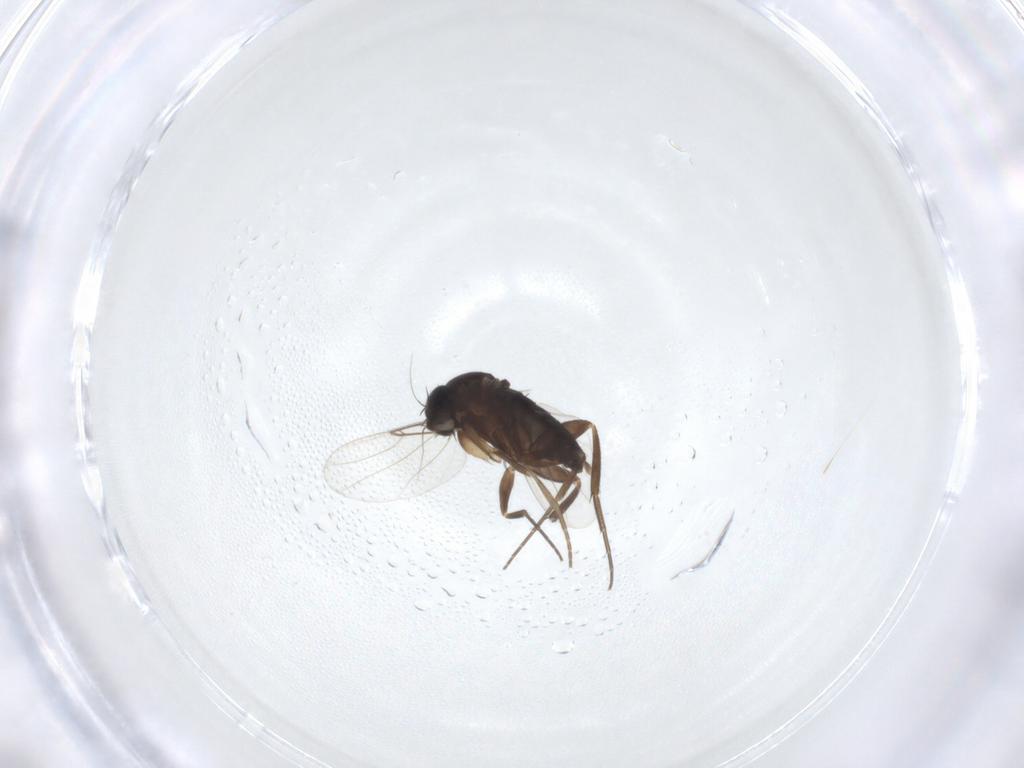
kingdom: Animalia
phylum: Arthropoda
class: Insecta
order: Diptera
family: Phoridae
